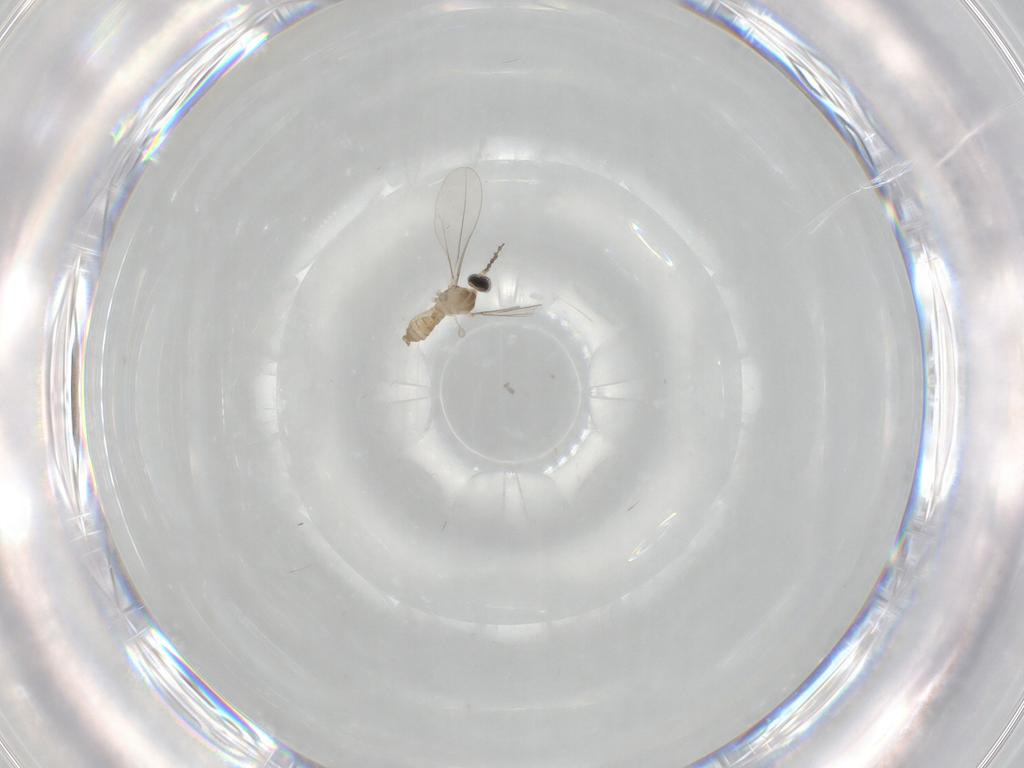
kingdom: Animalia
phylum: Arthropoda
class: Insecta
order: Diptera
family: Cecidomyiidae
